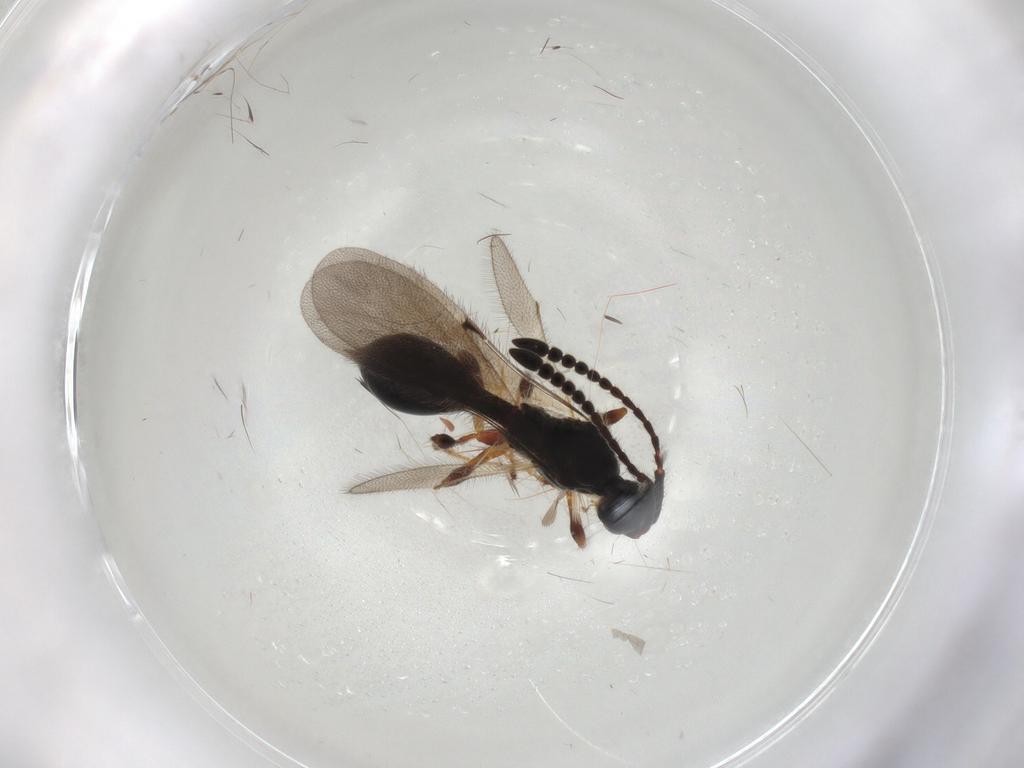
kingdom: Animalia
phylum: Arthropoda
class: Insecta
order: Hymenoptera
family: Diapriidae
